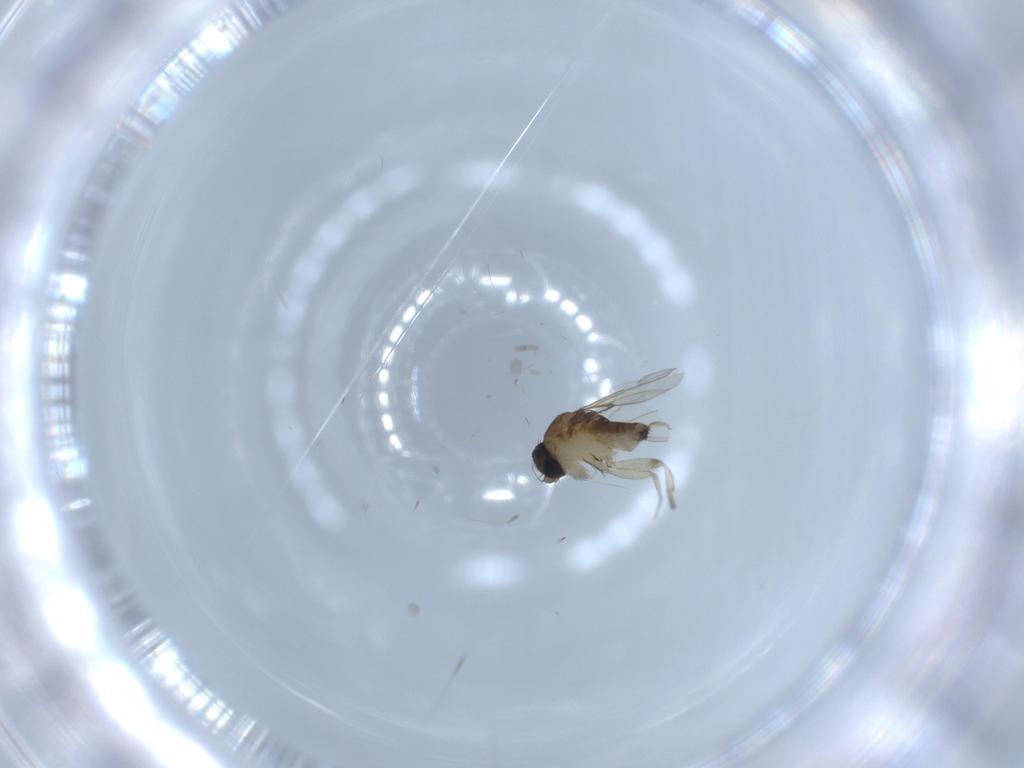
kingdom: Animalia
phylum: Arthropoda
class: Insecta
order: Diptera
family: Phoridae
